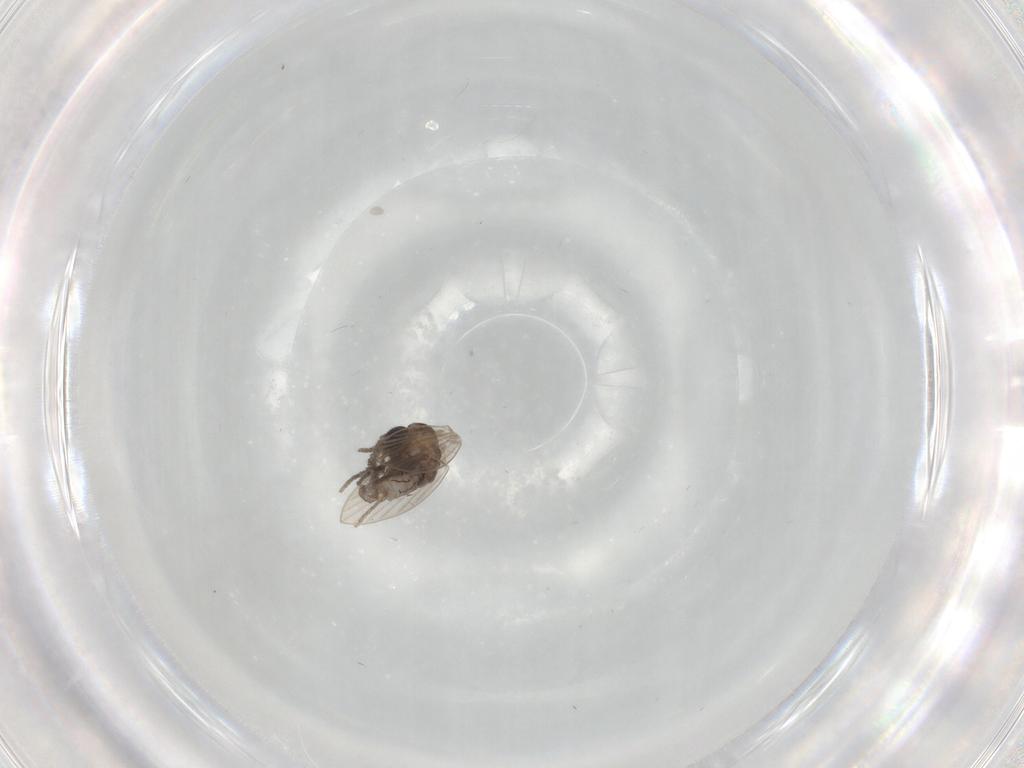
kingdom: Animalia
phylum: Arthropoda
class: Insecta
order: Diptera
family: Psychodidae
